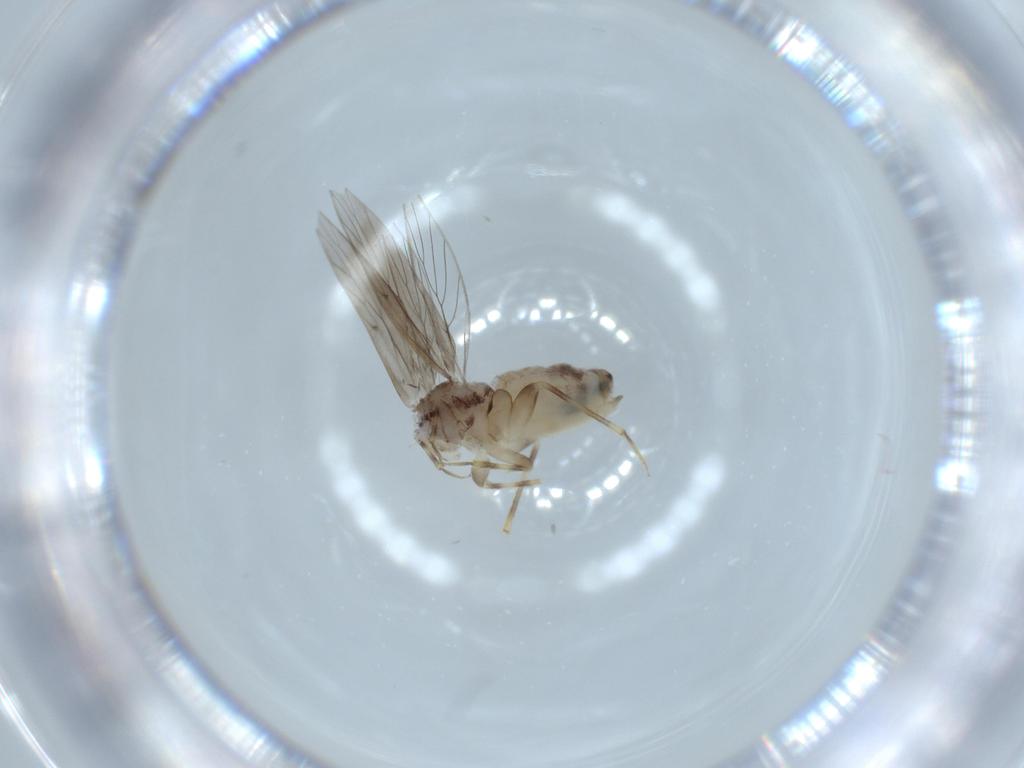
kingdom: Animalia
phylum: Arthropoda
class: Insecta
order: Psocodea
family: Lepidopsocidae
